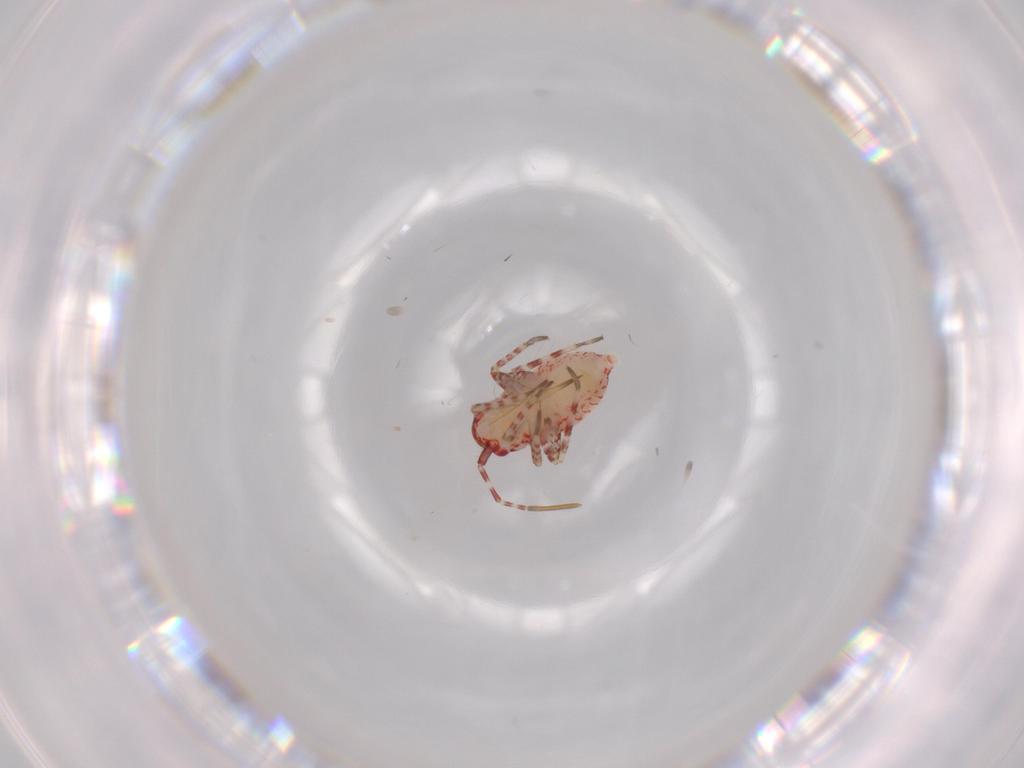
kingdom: Animalia
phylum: Arthropoda
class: Insecta
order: Hemiptera
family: Miridae
